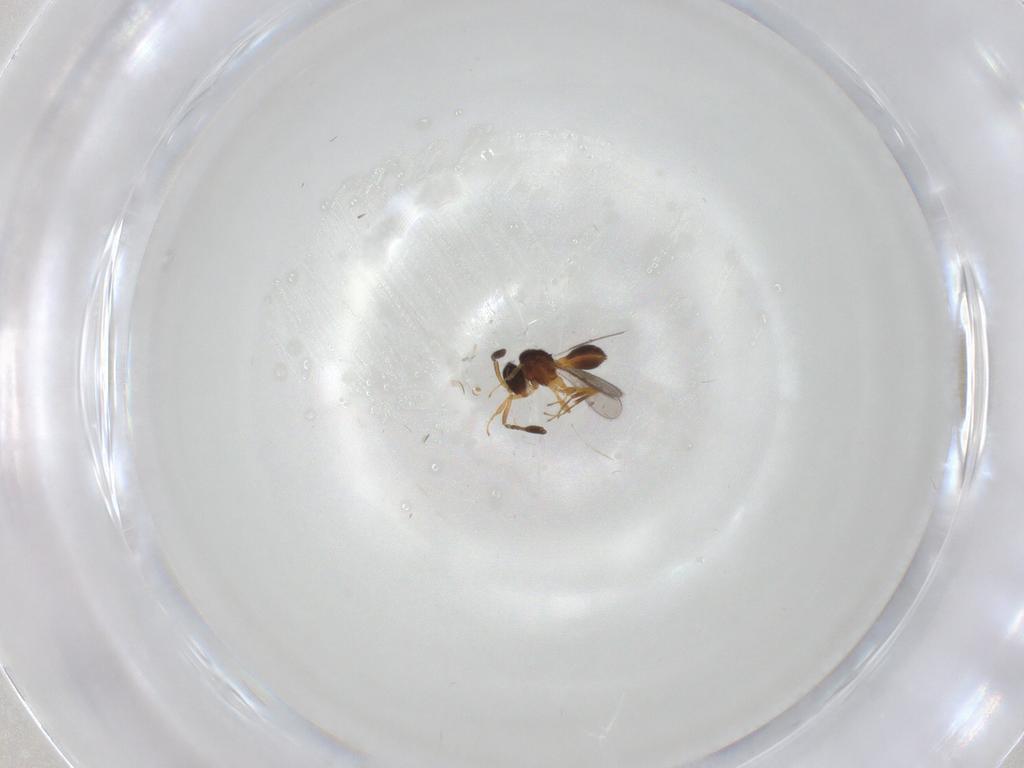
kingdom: Animalia
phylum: Arthropoda
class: Insecta
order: Hymenoptera
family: Scelionidae
